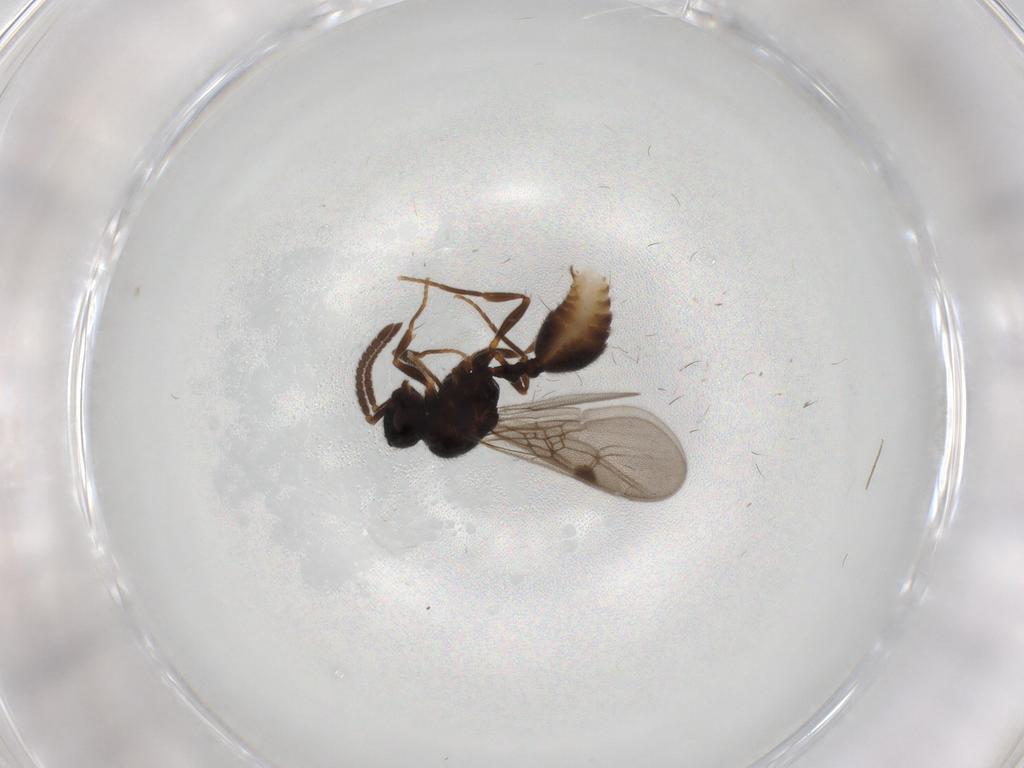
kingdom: Animalia
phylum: Arthropoda
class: Insecta
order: Hymenoptera
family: Formicidae
